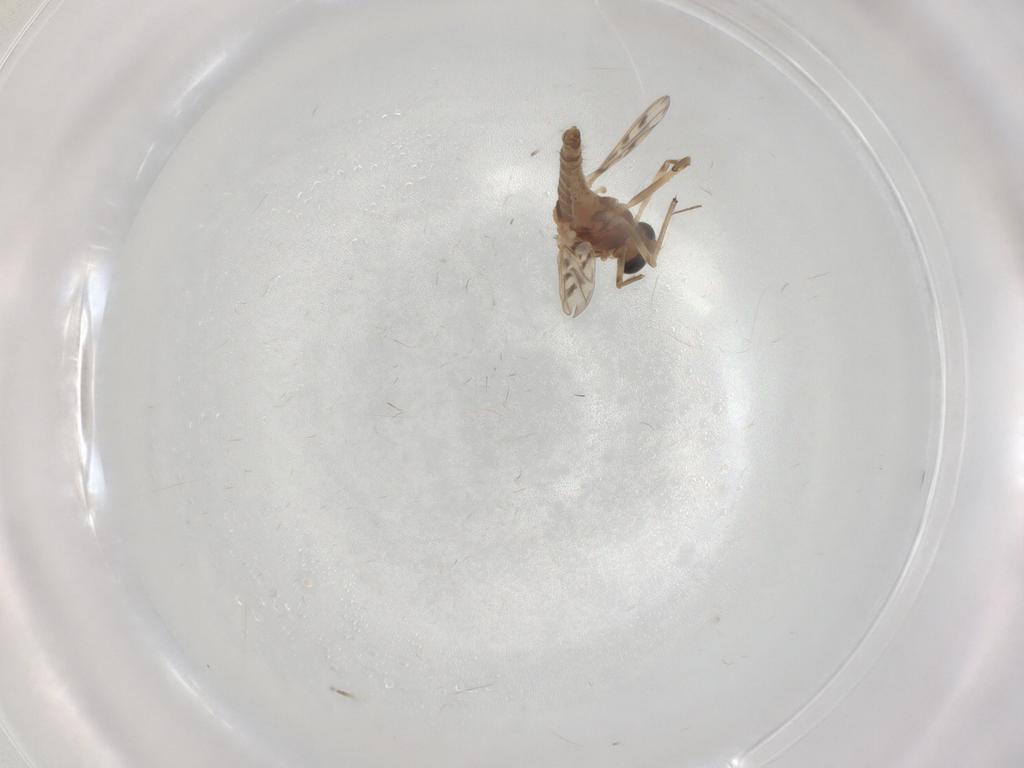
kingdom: Animalia
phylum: Arthropoda
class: Insecta
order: Diptera
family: Chironomidae
